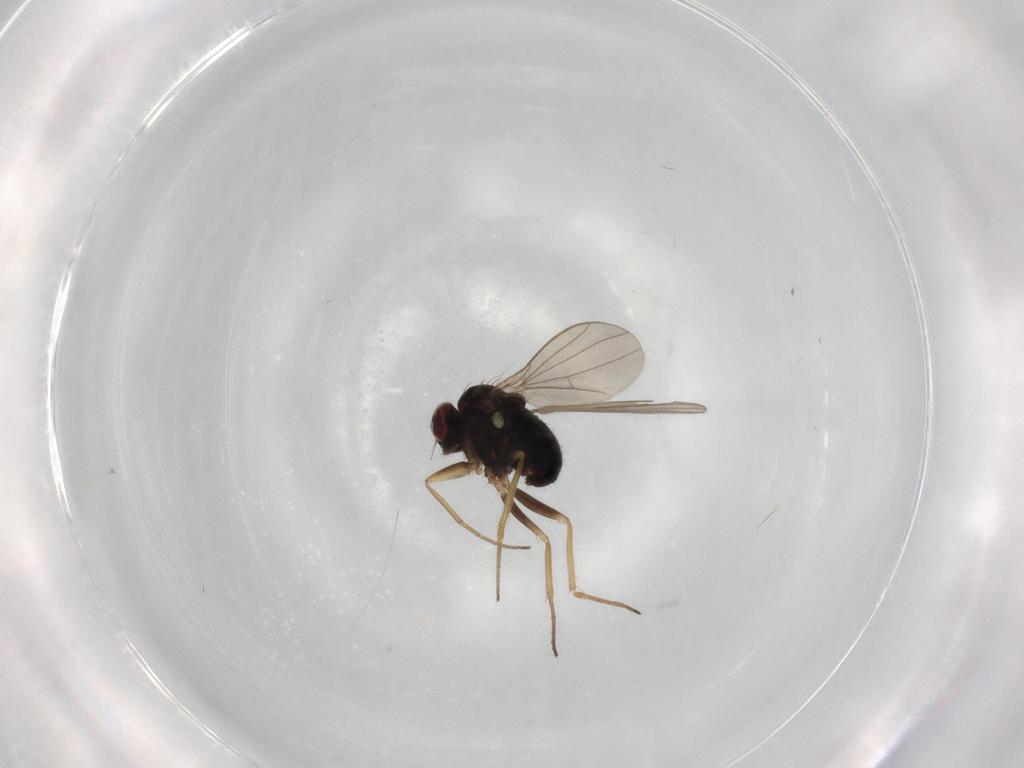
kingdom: Animalia
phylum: Arthropoda
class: Insecta
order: Diptera
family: Dolichopodidae
